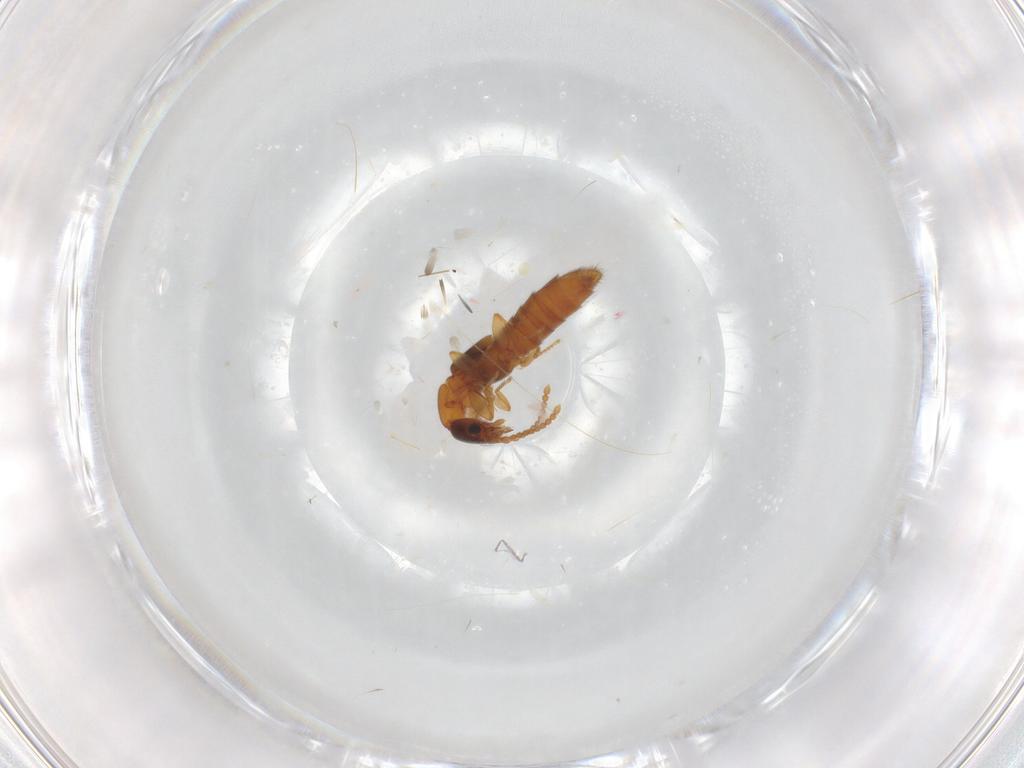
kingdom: Animalia
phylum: Arthropoda
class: Insecta
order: Coleoptera
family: Staphylinidae
